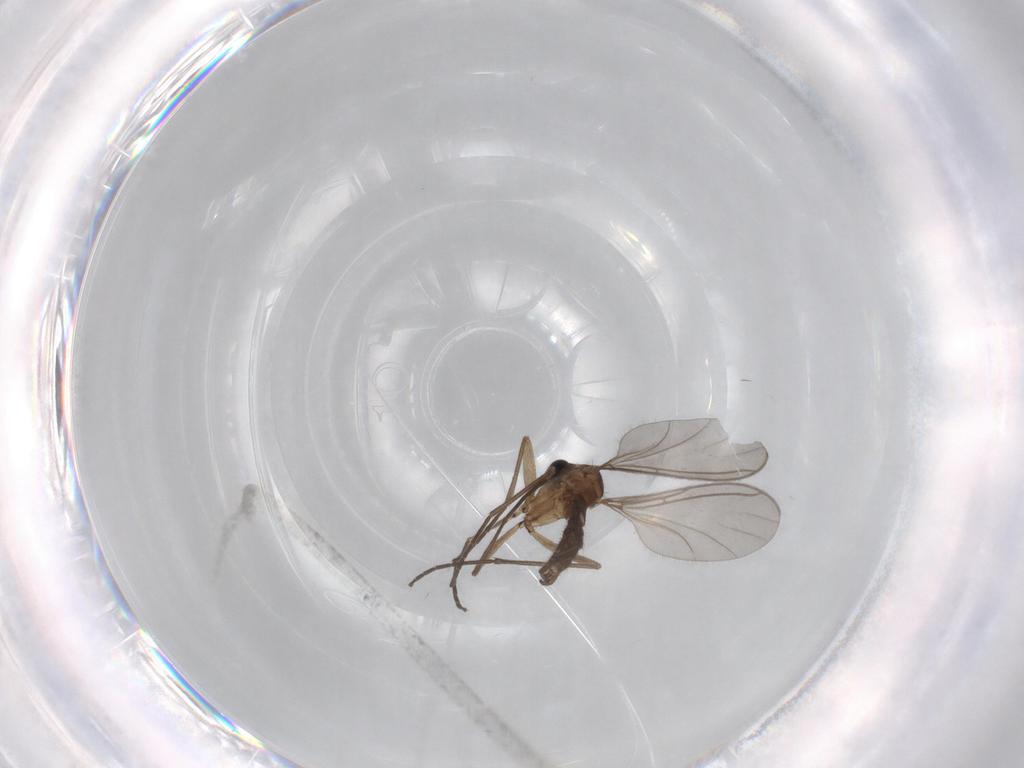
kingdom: Animalia
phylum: Arthropoda
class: Insecta
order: Diptera
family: Sciaridae
